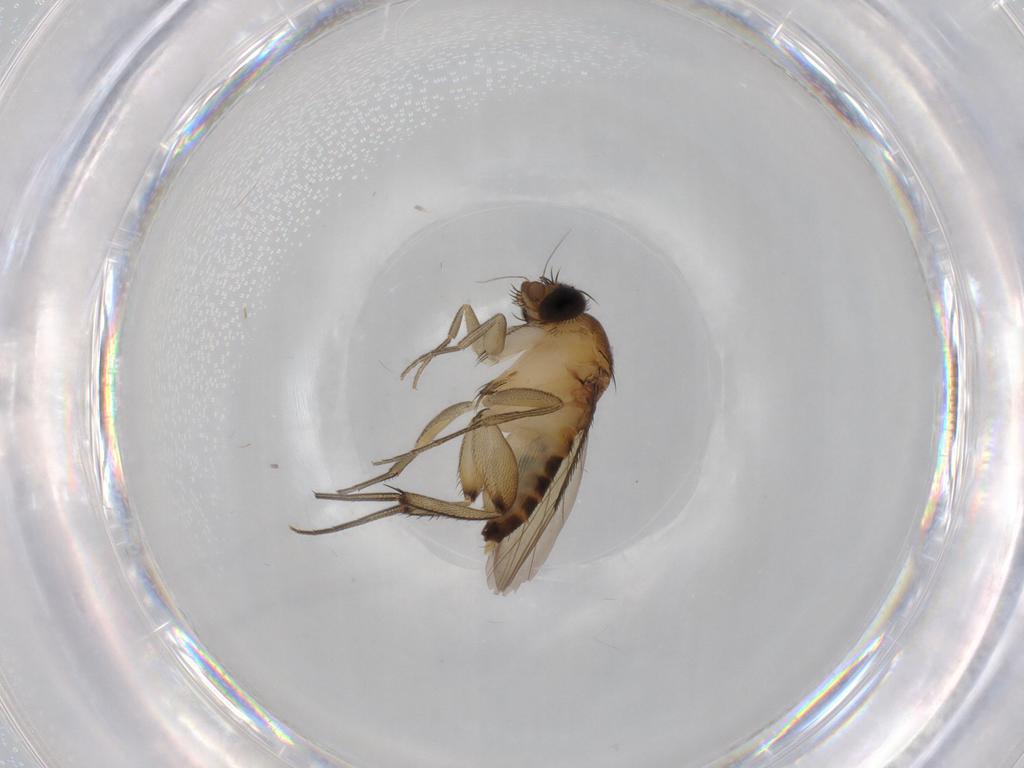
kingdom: Animalia
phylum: Arthropoda
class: Insecta
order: Diptera
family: Phoridae
